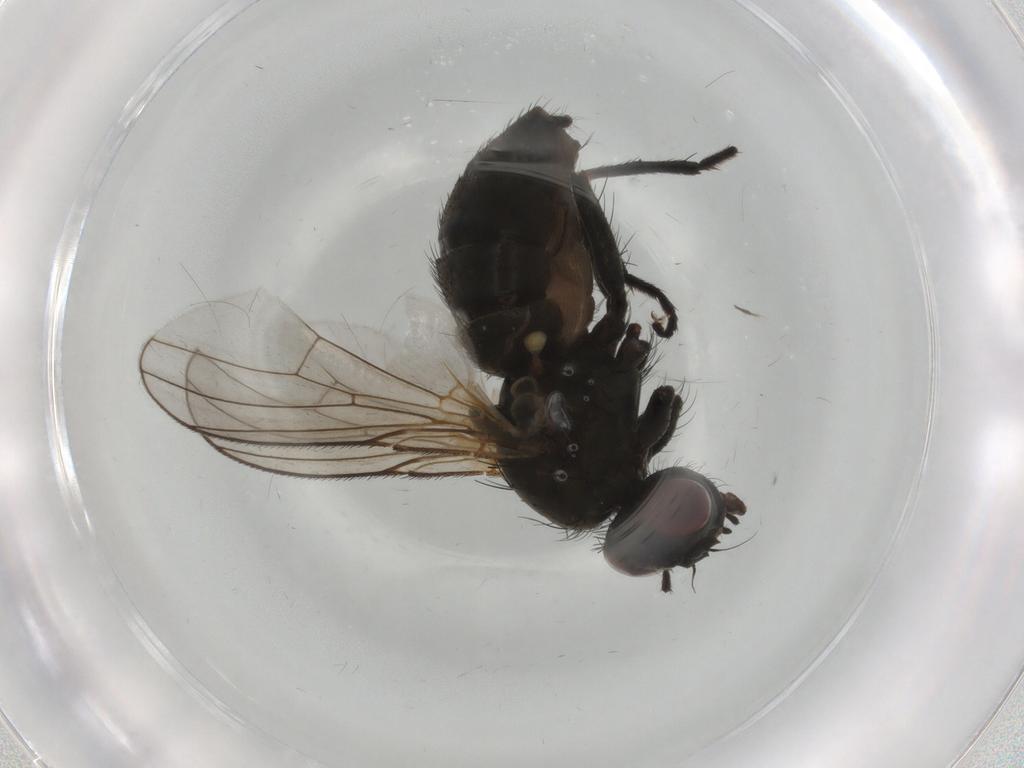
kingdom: Animalia
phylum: Arthropoda
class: Insecta
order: Diptera
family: Muscidae
